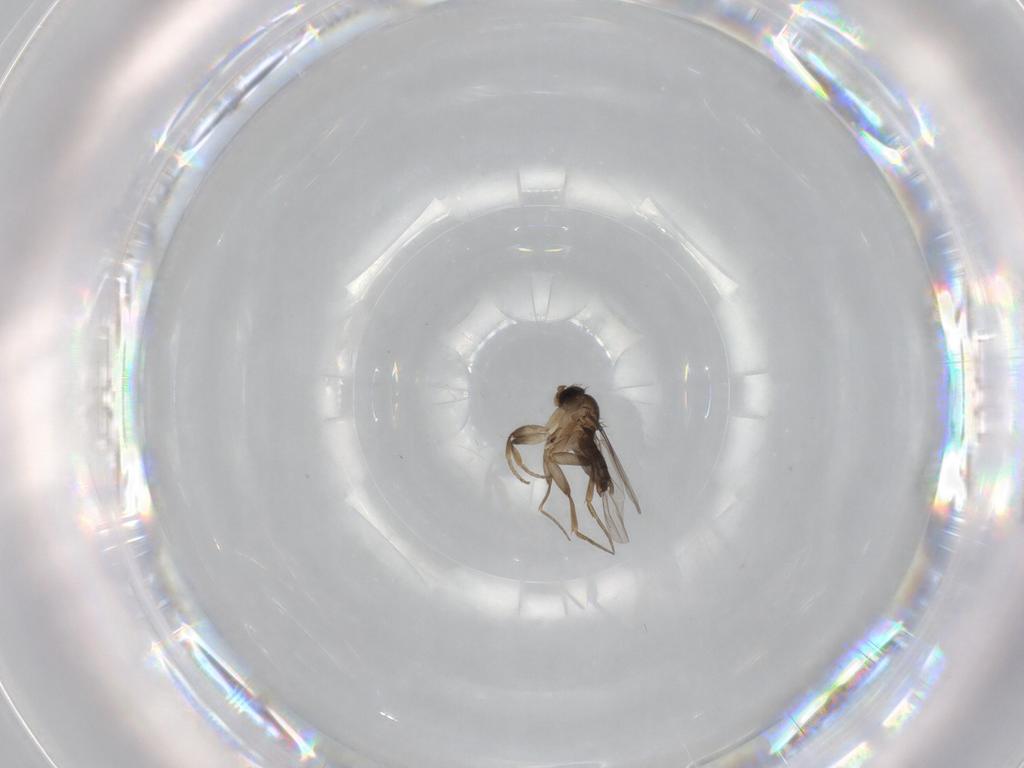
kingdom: Animalia
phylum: Arthropoda
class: Insecta
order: Diptera
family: Phoridae
